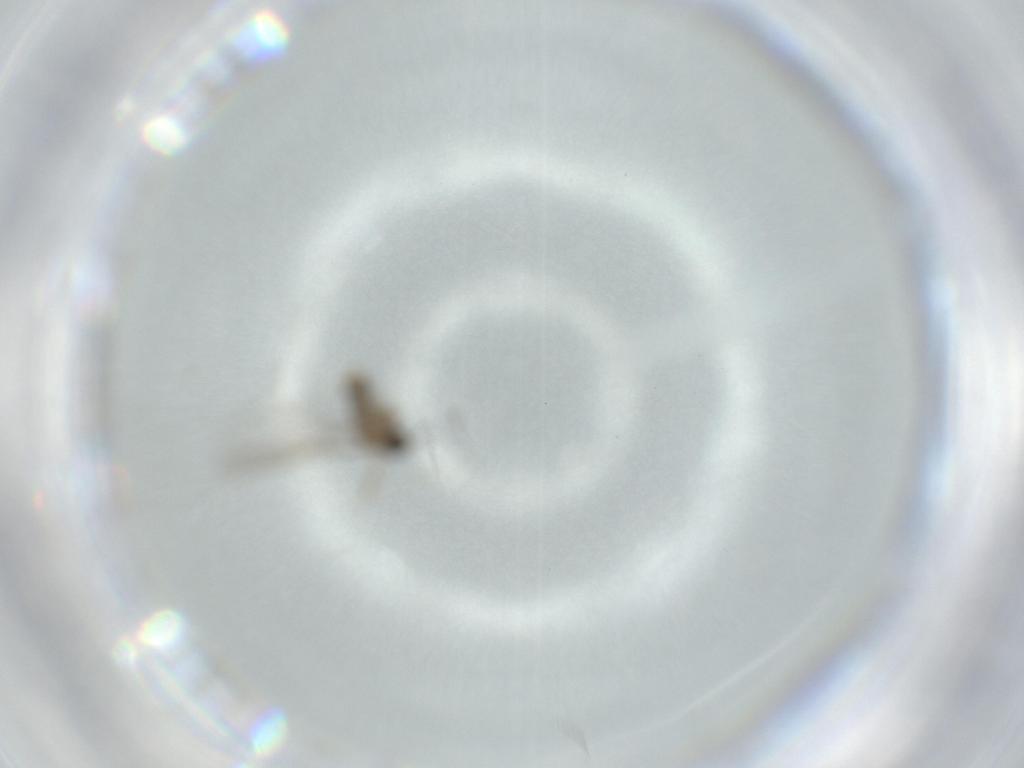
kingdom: Animalia
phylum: Arthropoda
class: Insecta
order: Diptera
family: Cecidomyiidae
